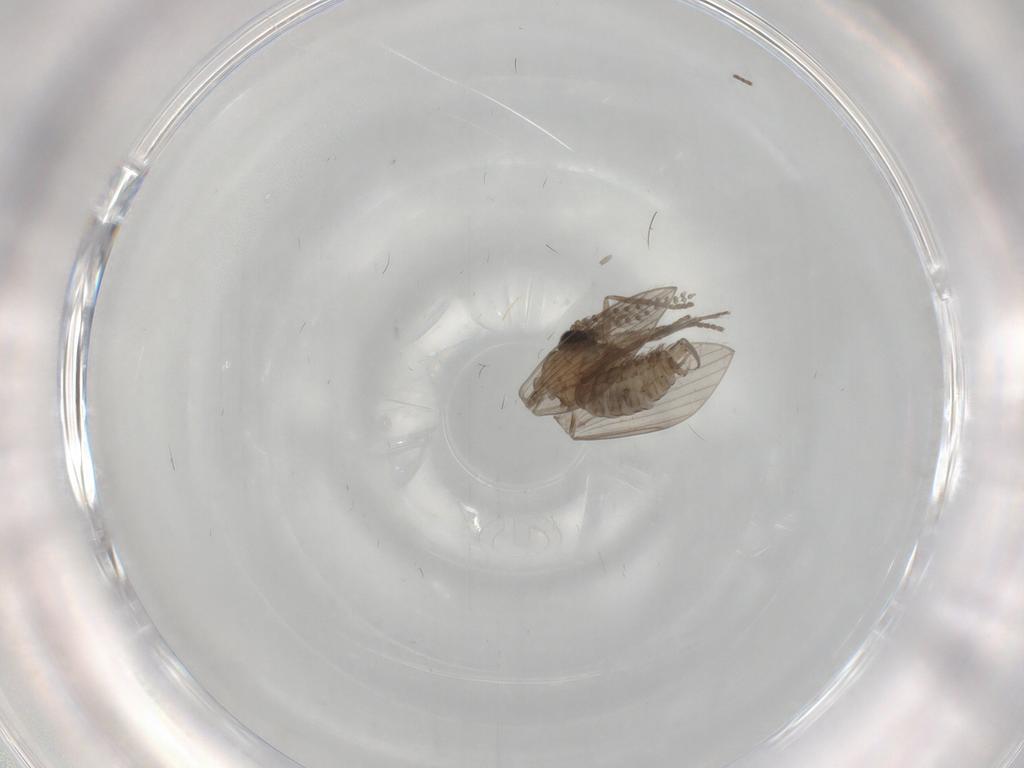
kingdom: Animalia
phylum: Arthropoda
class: Insecta
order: Diptera
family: Psychodidae
